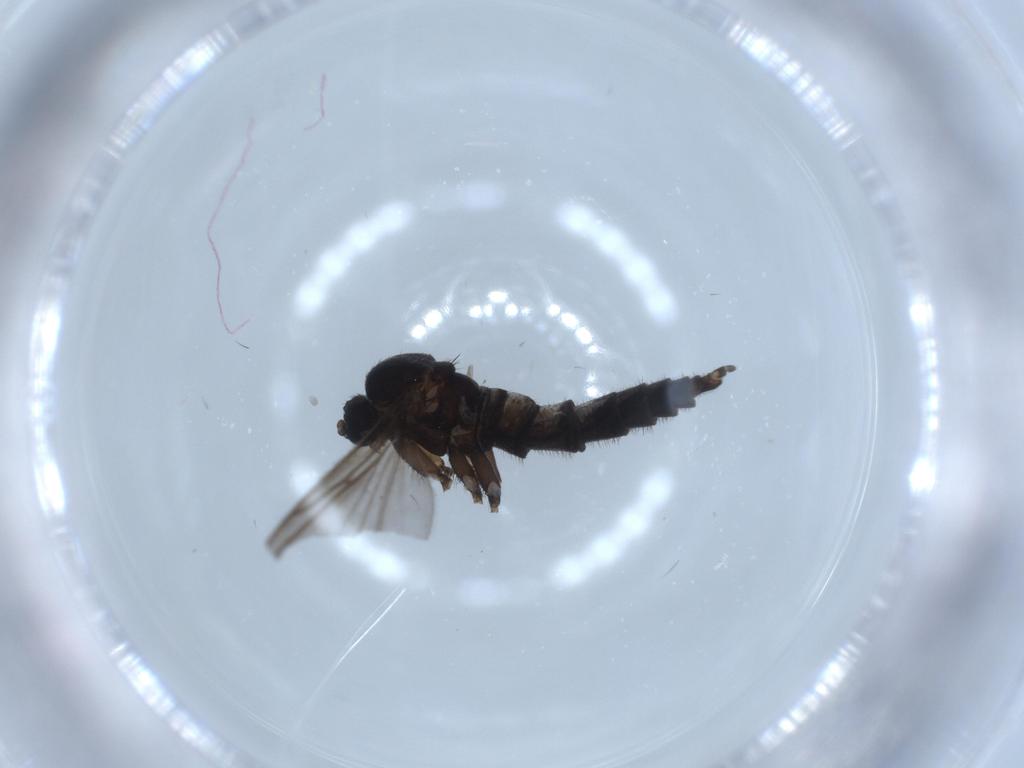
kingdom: Animalia
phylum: Arthropoda
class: Insecta
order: Diptera
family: Sciaridae
